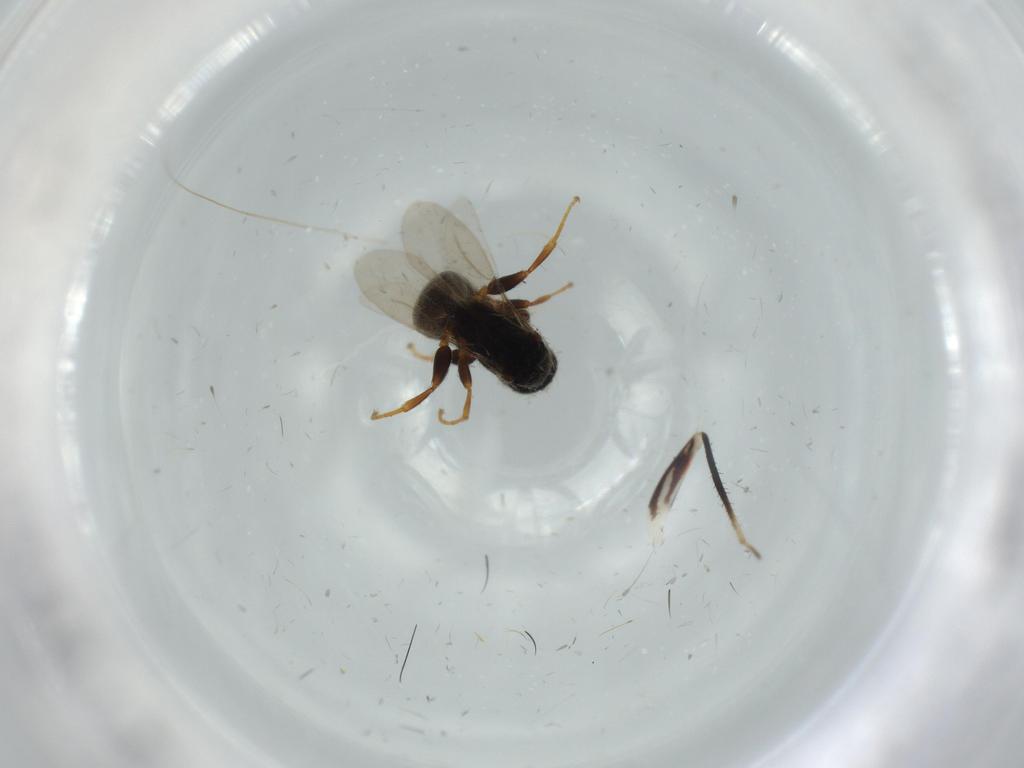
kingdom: Animalia
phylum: Arthropoda
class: Insecta
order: Hymenoptera
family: Bethylidae
